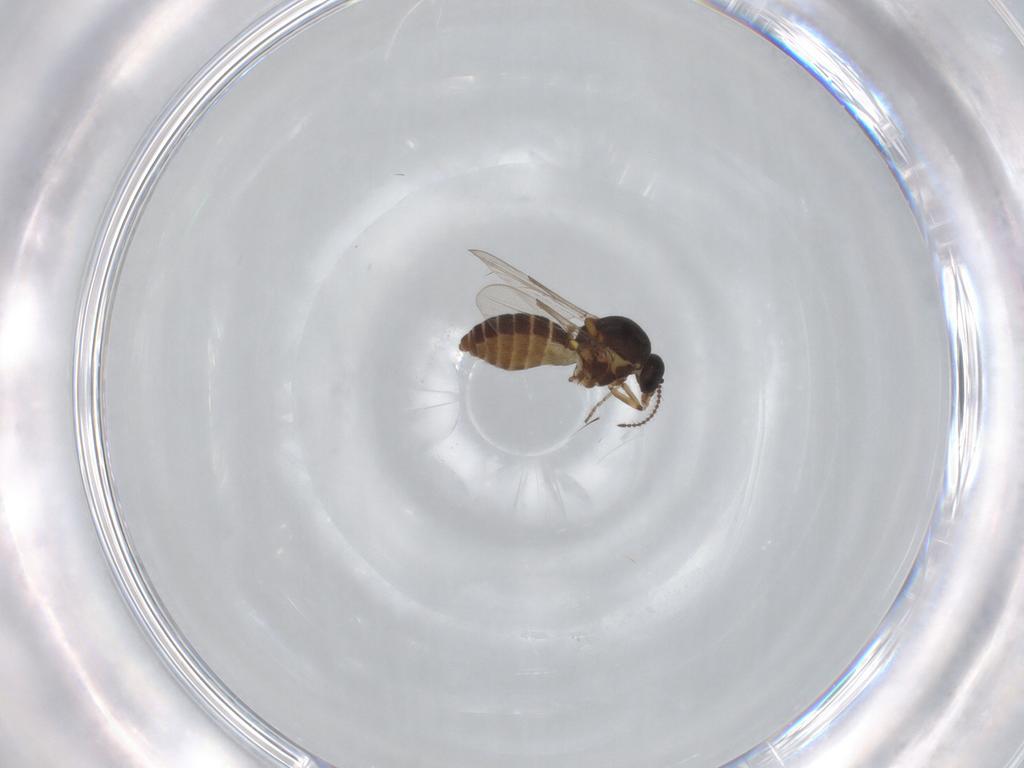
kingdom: Animalia
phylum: Arthropoda
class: Insecta
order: Diptera
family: Ceratopogonidae
